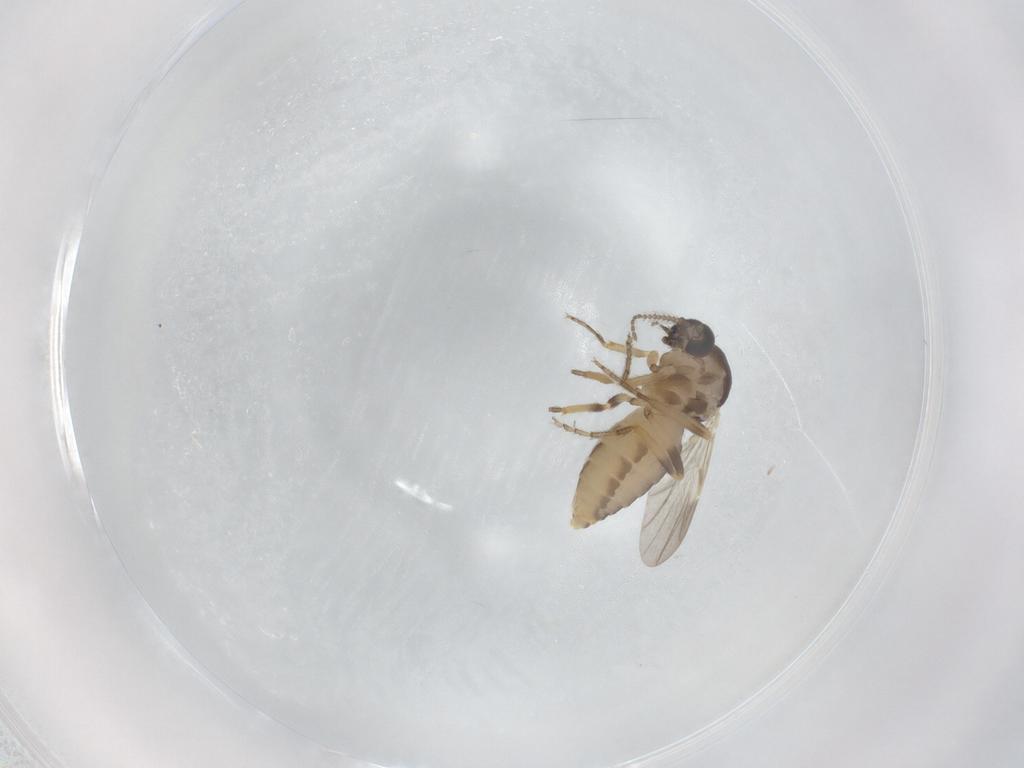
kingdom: Animalia
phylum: Arthropoda
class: Insecta
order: Diptera
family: Ceratopogonidae
